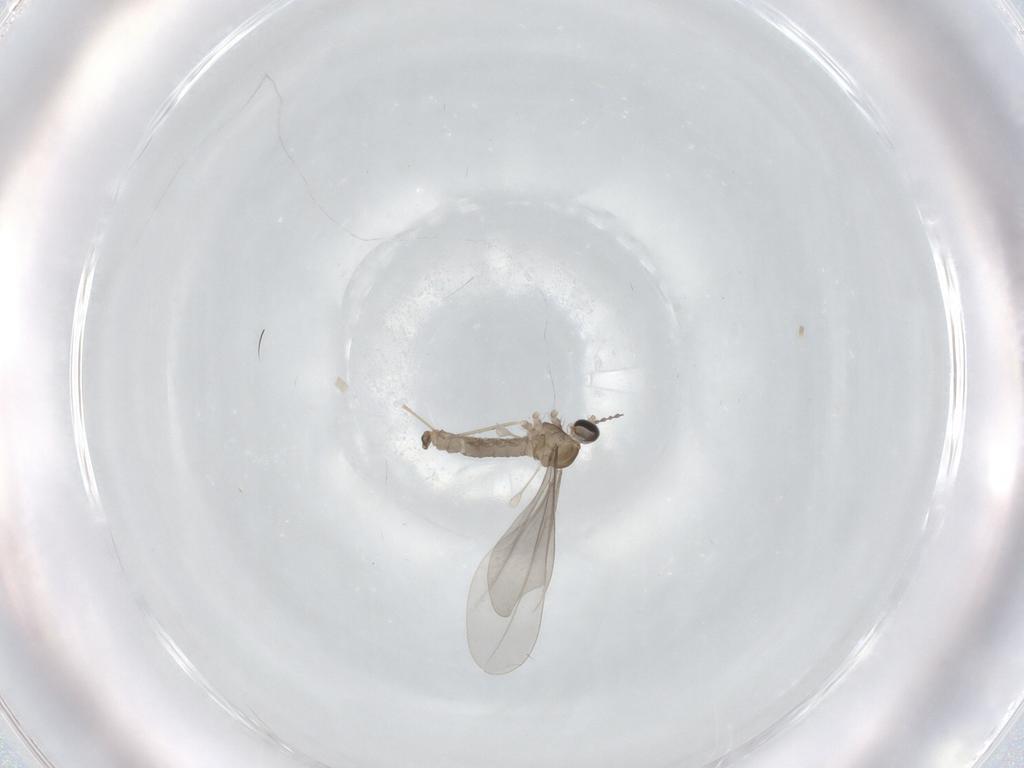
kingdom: Animalia
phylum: Arthropoda
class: Insecta
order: Diptera
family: Cecidomyiidae
